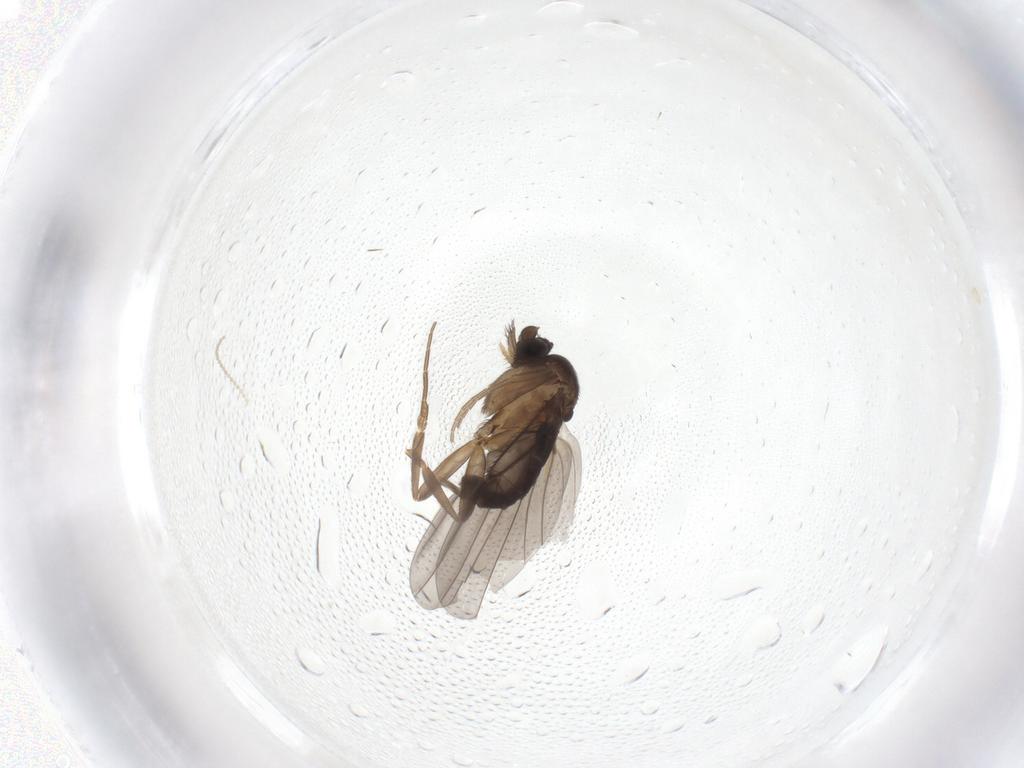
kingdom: Animalia
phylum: Arthropoda
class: Insecta
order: Diptera
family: Phoridae
